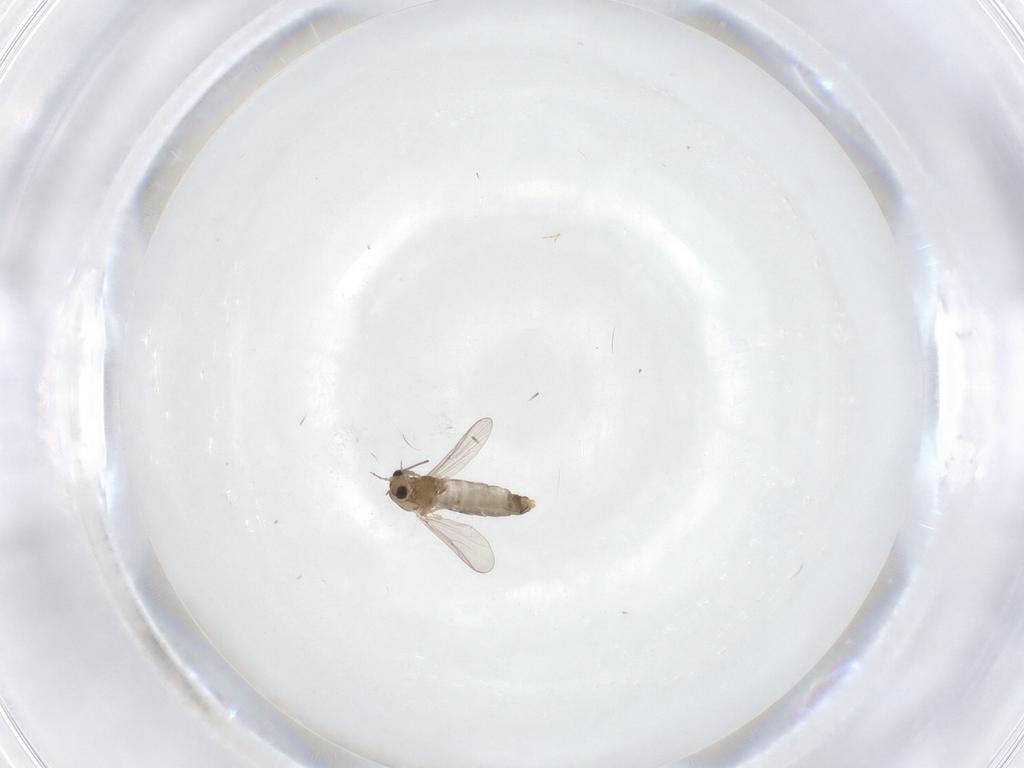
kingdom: Animalia
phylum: Arthropoda
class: Insecta
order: Diptera
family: Chironomidae
